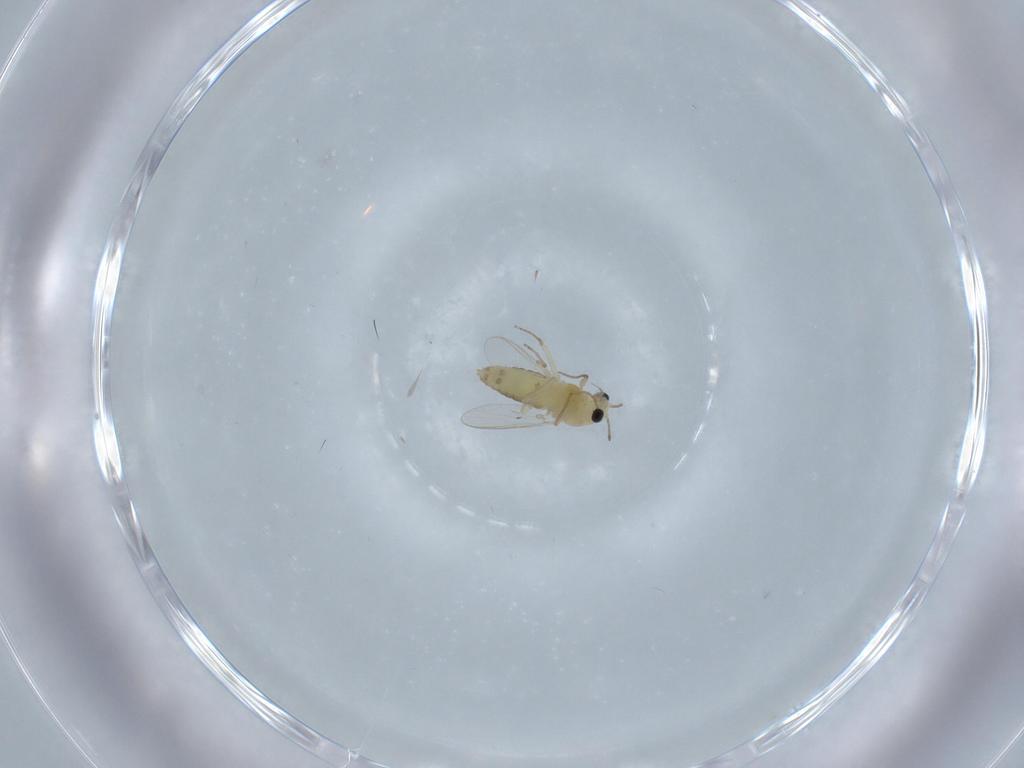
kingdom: Animalia
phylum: Arthropoda
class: Insecta
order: Diptera
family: Chironomidae
